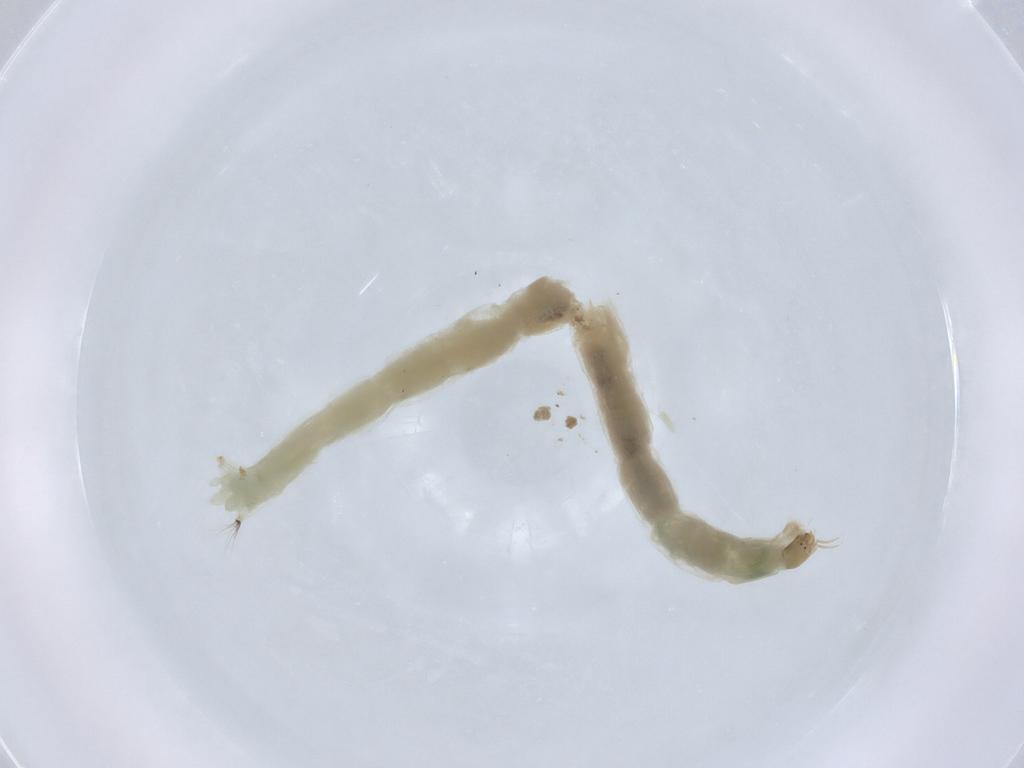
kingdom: Animalia
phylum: Arthropoda
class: Insecta
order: Diptera
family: Chironomidae
